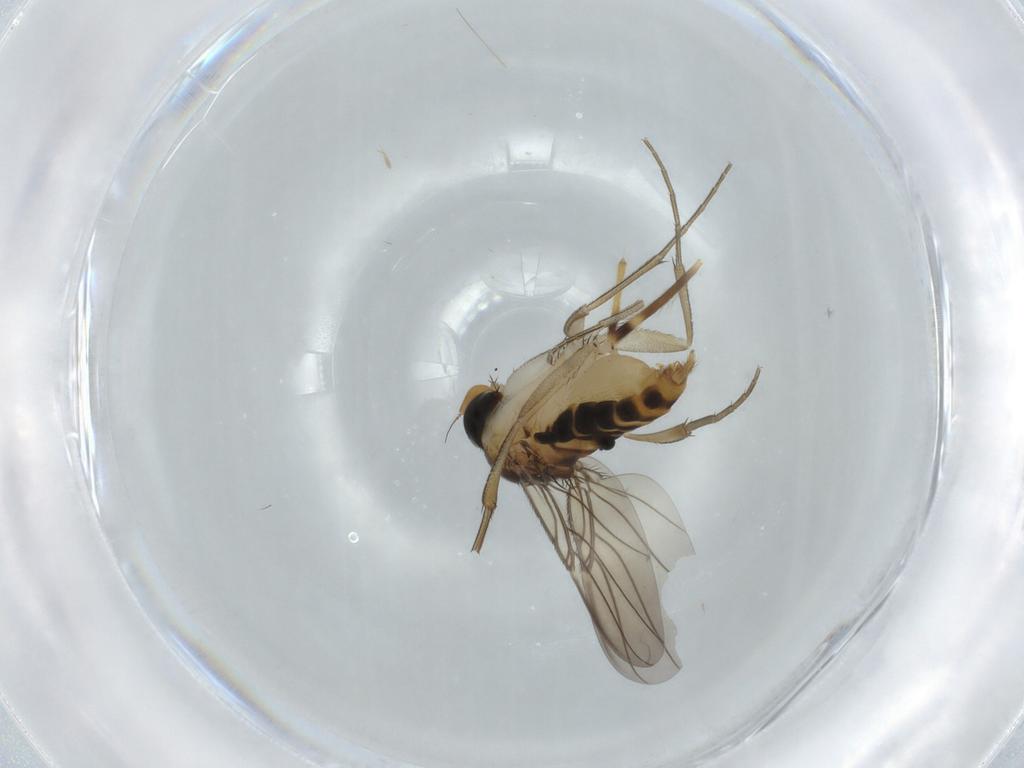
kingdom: Animalia
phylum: Arthropoda
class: Insecta
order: Diptera
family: Phoridae
